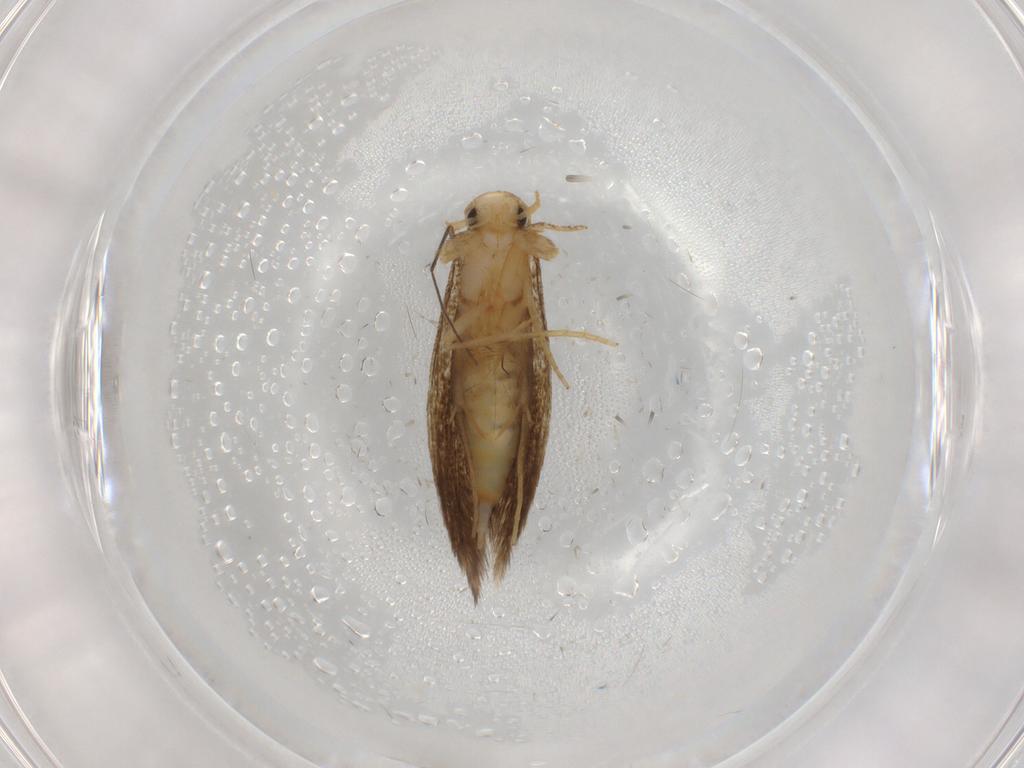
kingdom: Animalia
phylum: Arthropoda
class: Insecta
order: Lepidoptera
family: Tineidae
